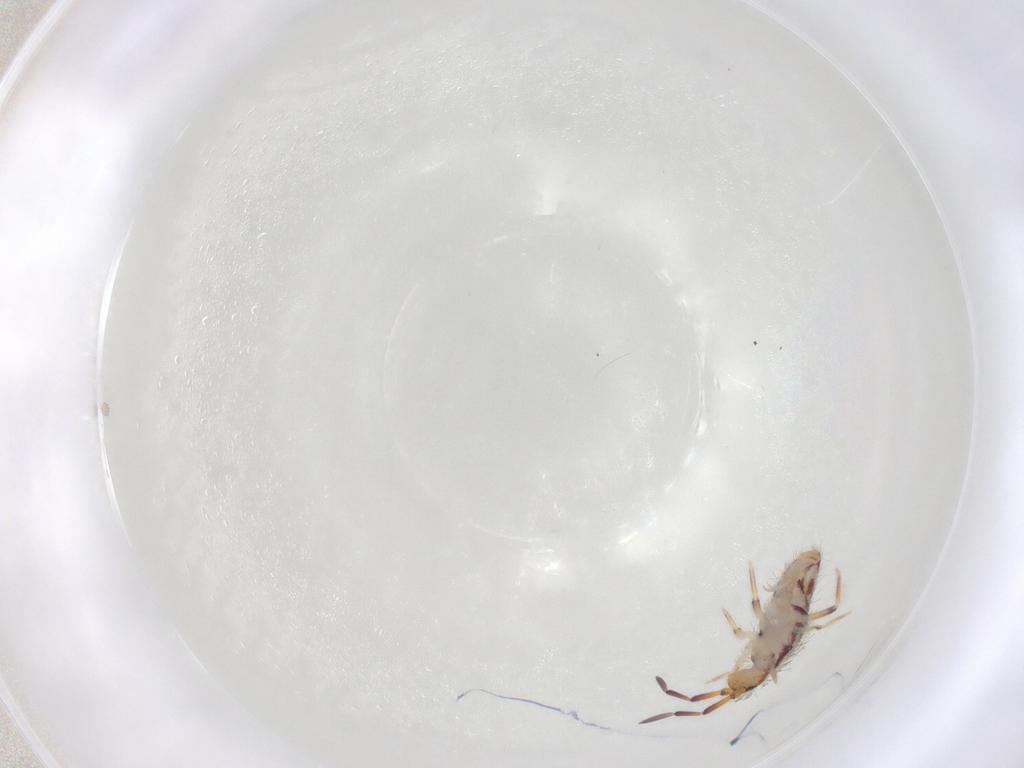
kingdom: Animalia
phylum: Arthropoda
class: Collembola
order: Entomobryomorpha
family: Entomobryidae
